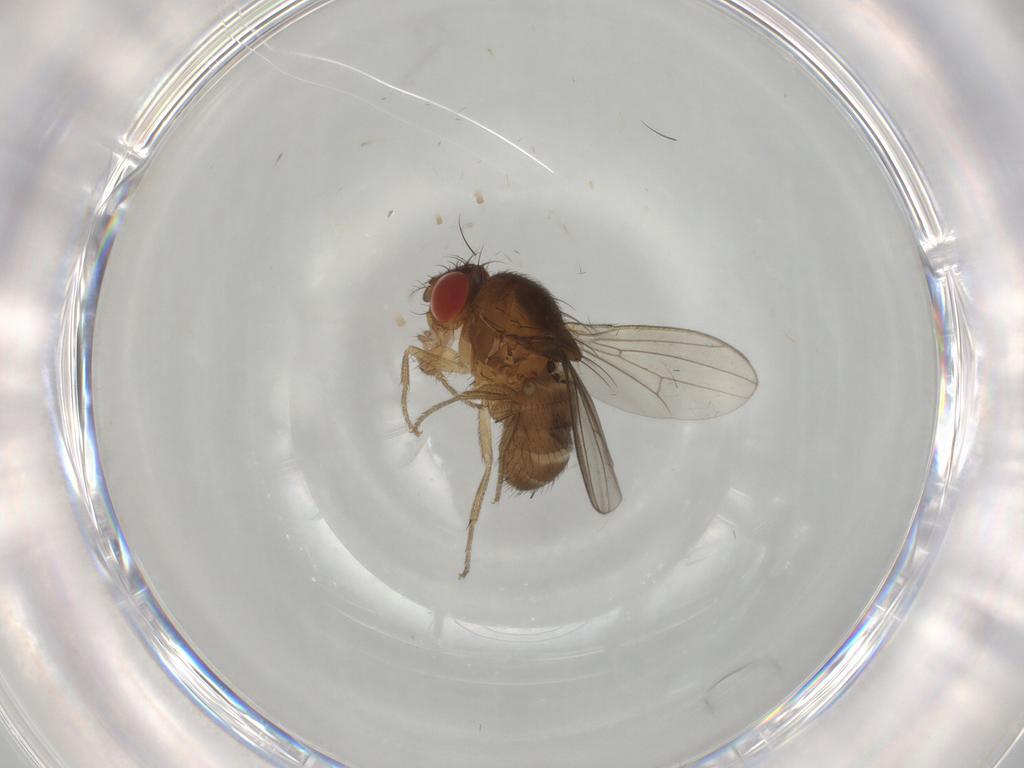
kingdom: Animalia
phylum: Arthropoda
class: Insecta
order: Diptera
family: Drosophilidae
